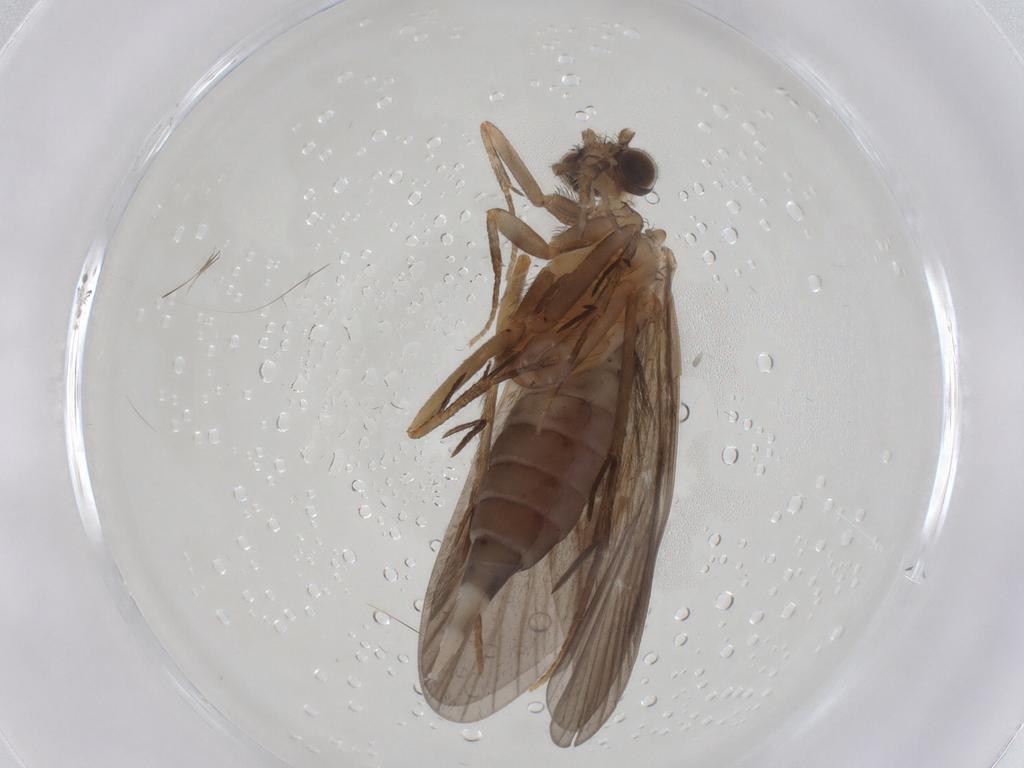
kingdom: Animalia
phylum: Arthropoda
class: Insecta
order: Trichoptera
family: Philopotamidae
